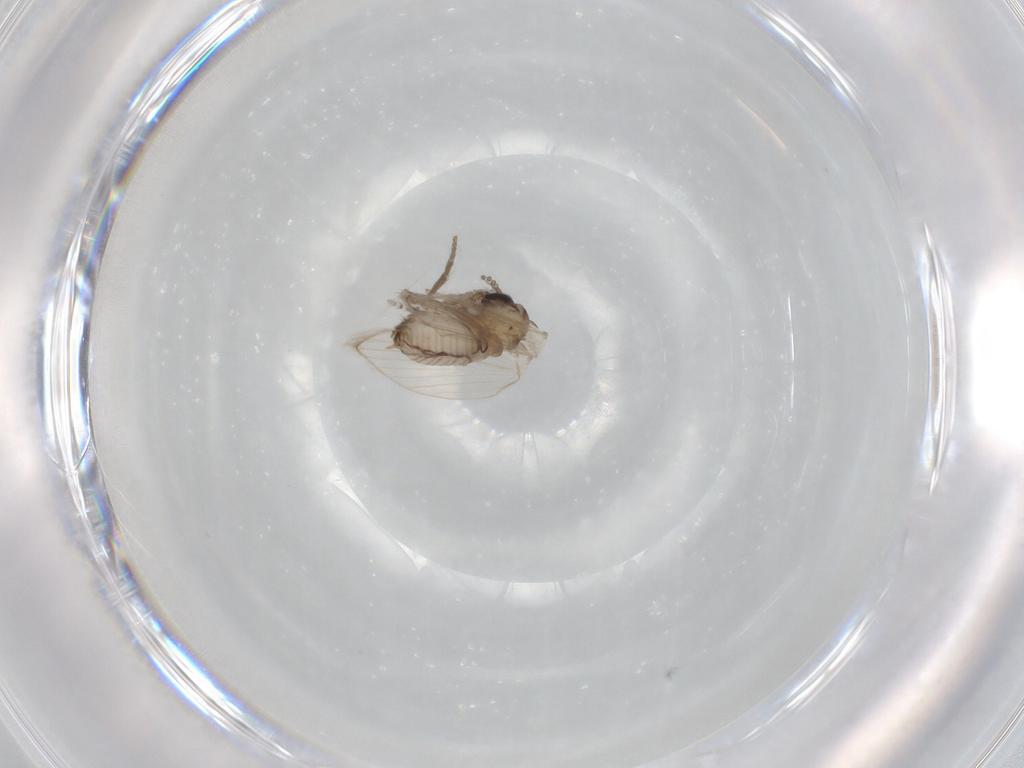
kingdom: Animalia
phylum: Arthropoda
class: Insecta
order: Diptera
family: Psychodidae
